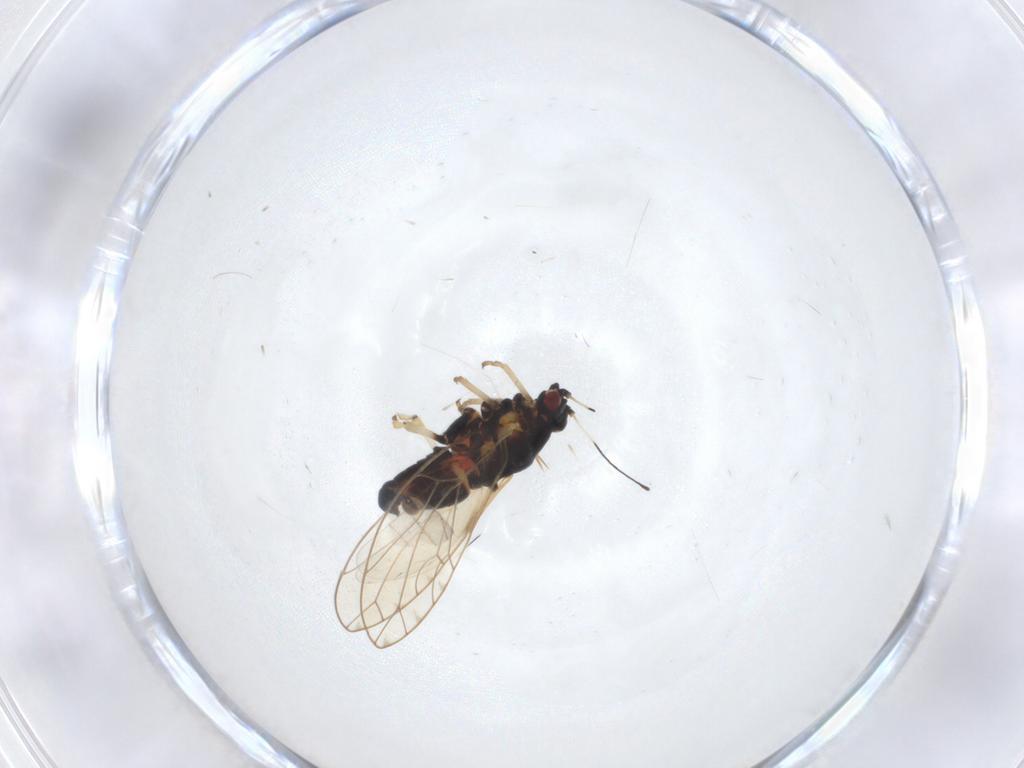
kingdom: Animalia
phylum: Arthropoda
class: Insecta
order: Hemiptera
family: Triozidae
